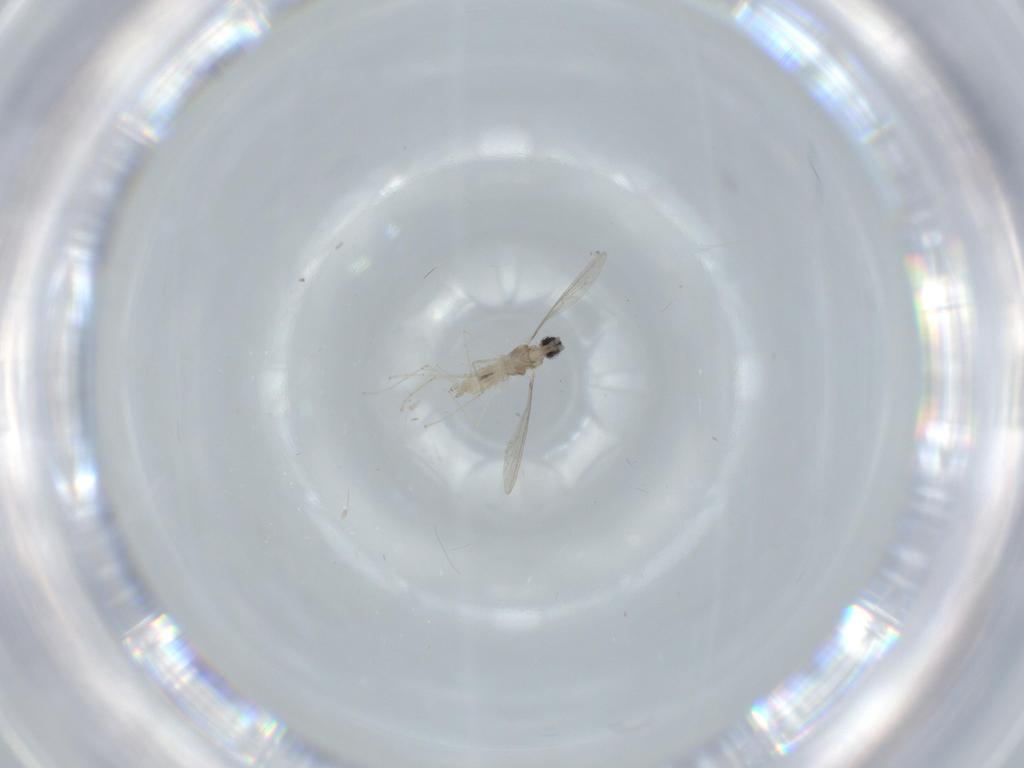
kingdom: Animalia
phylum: Arthropoda
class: Insecta
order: Diptera
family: Cecidomyiidae
